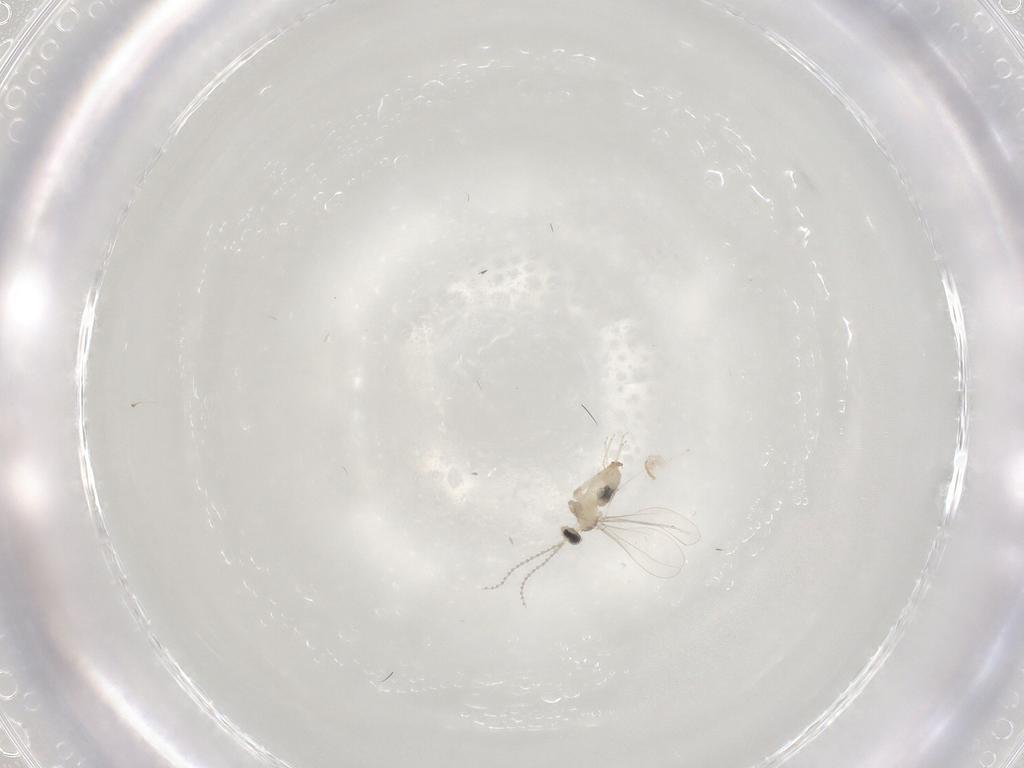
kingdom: Animalia
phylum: Arthropoda
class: Insecta
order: Diptera
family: Cecidomyiidae
